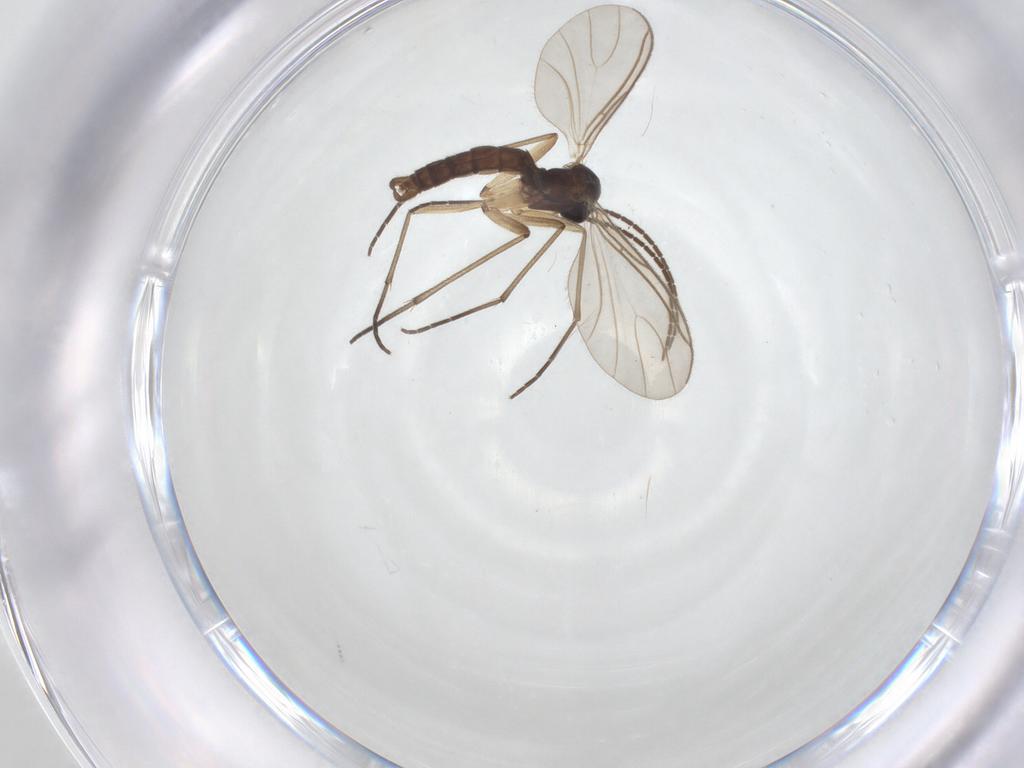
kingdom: Animalia
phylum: Arthropoda
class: Insecta
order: Diptera
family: Sciaridae
